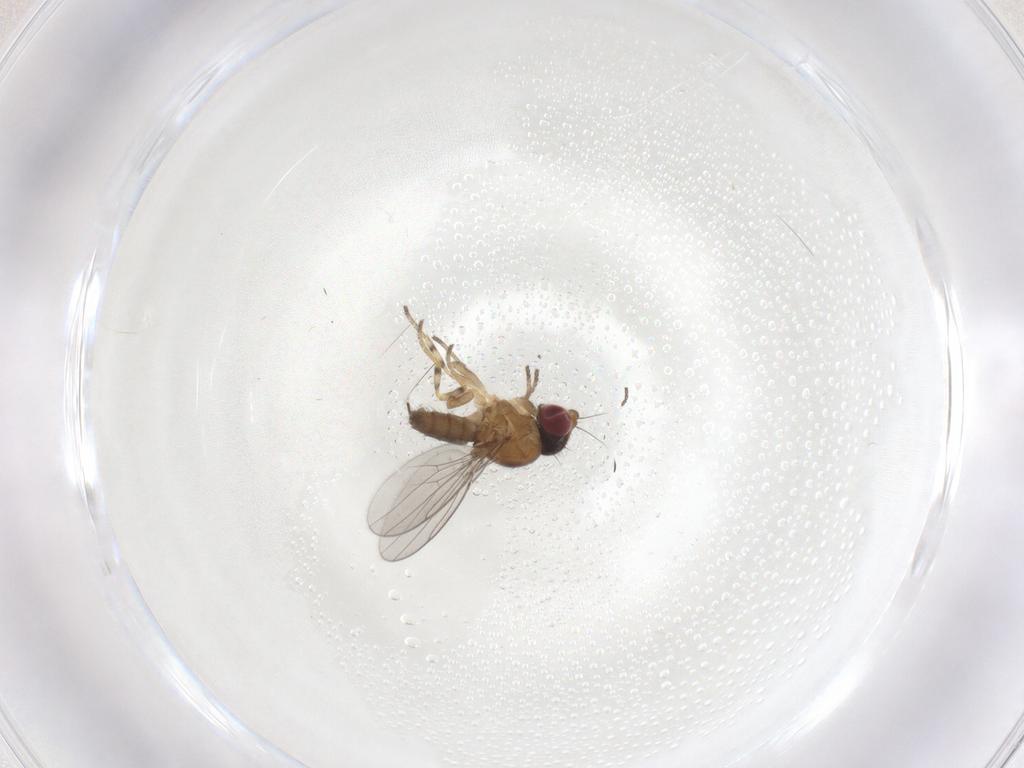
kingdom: Animalia
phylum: Arthropoda
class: Insecta
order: Diptera
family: Chloropidae
